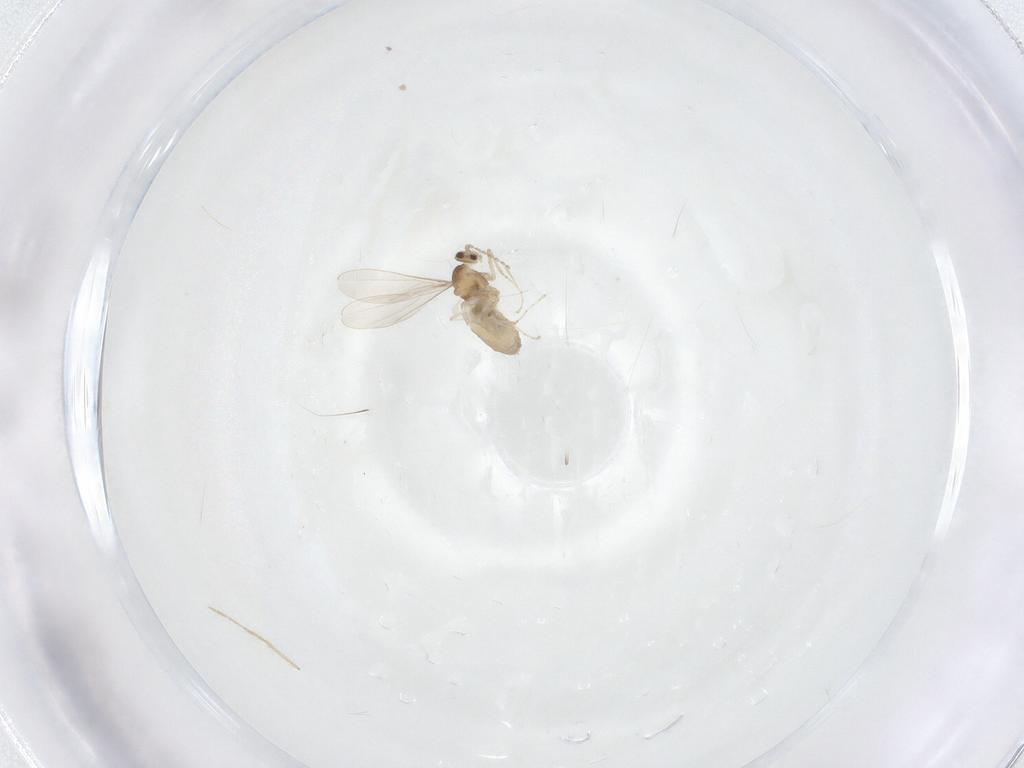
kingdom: Animalia
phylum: Arthropoda
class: Insecta
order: Diptera
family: Chironomidae
